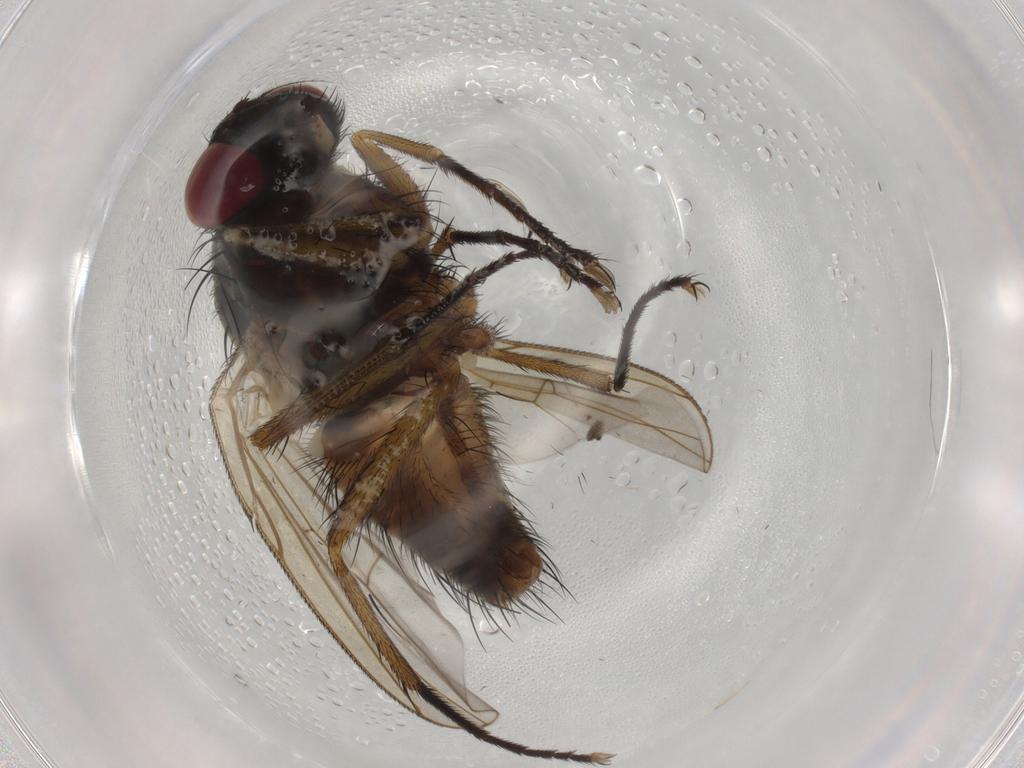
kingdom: Animalia
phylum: Arthropoda
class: Insecta
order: Diptera
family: Muscidae
